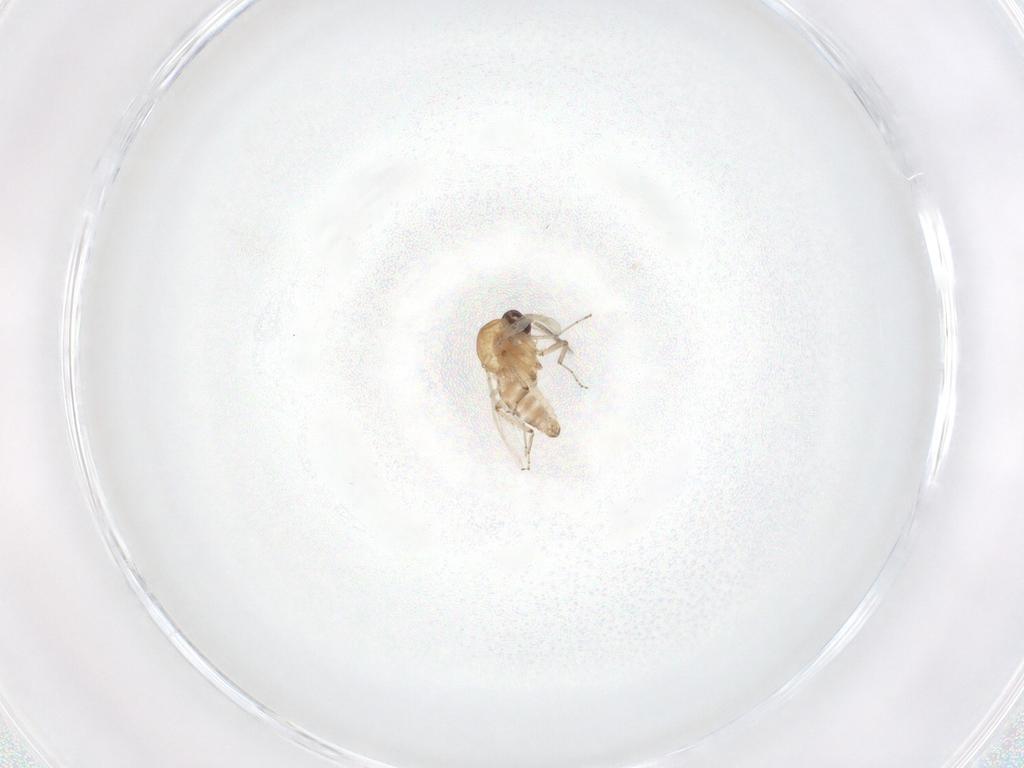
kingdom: Animalia
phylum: Arthropoda
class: Insecta
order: Diptera
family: Ceratopogonidae
